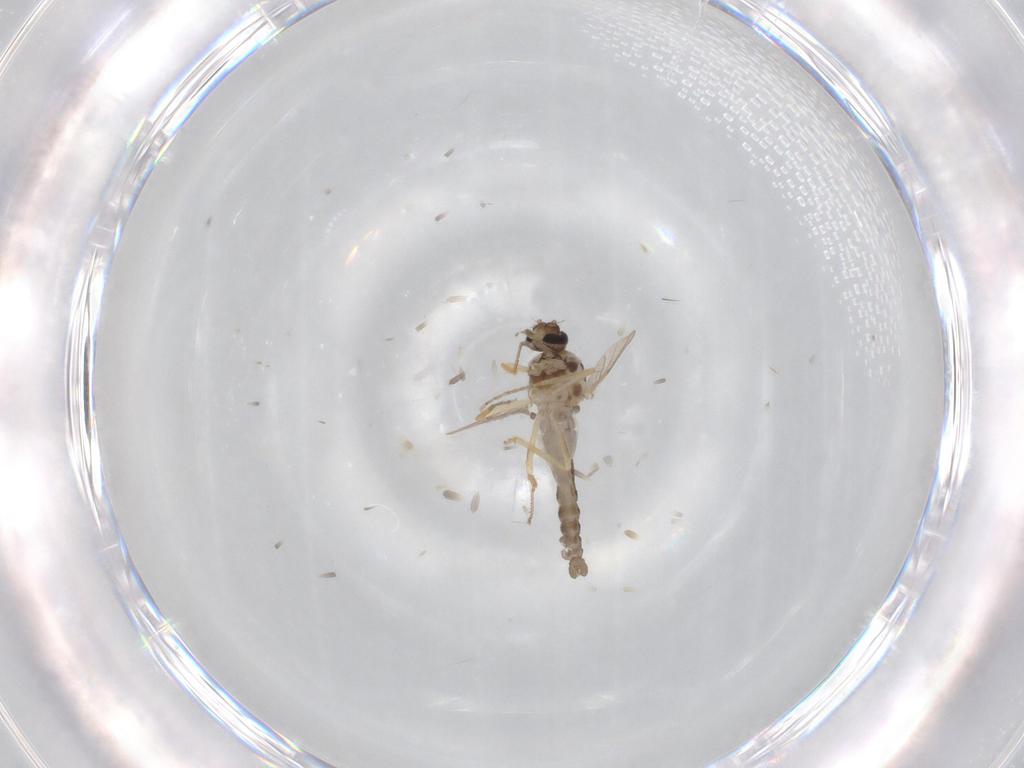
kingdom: Animalia
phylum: Arthropoda
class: Insecta
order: Diptera
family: Ceratopogonidae
